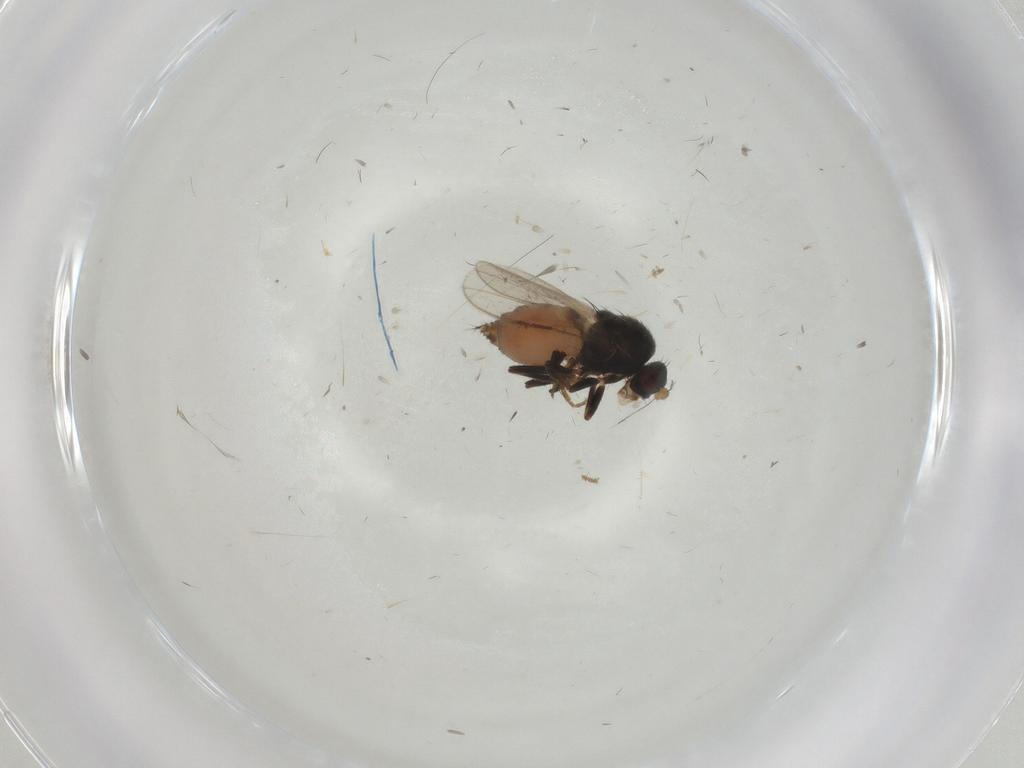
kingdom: Animalia
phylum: Arthropoda
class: Insecta
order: Diptera
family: Sphaeroceridae
